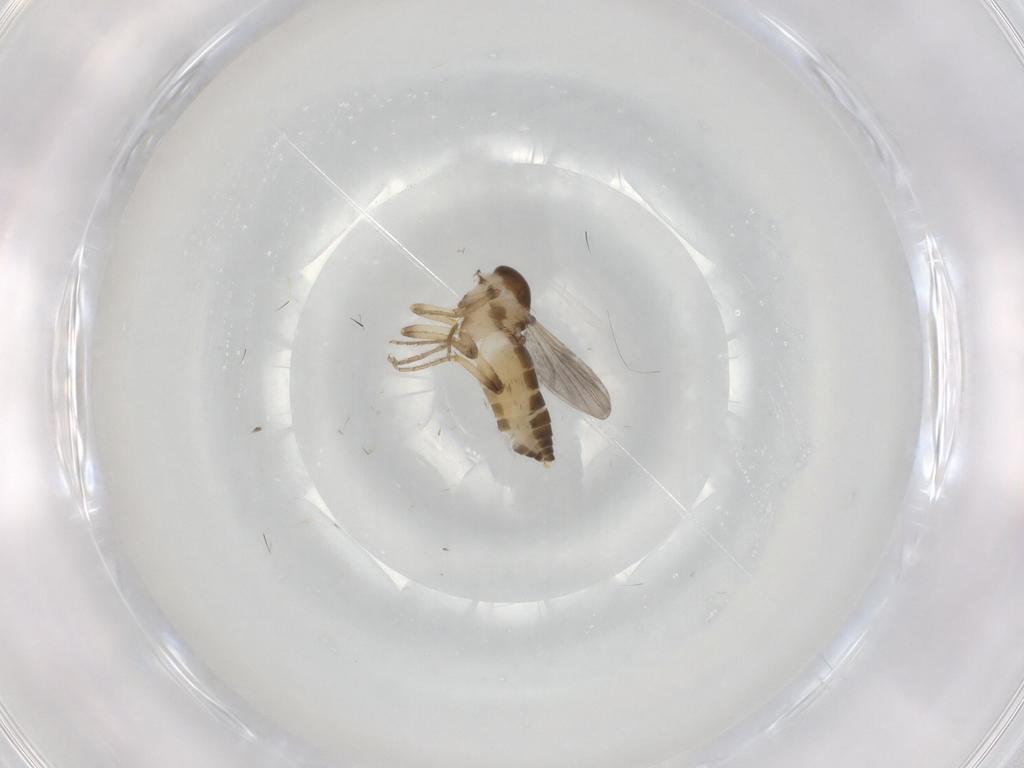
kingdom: Animalia
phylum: Arthropoda
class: Insecta
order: Diptera
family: Ceratopogonidae
